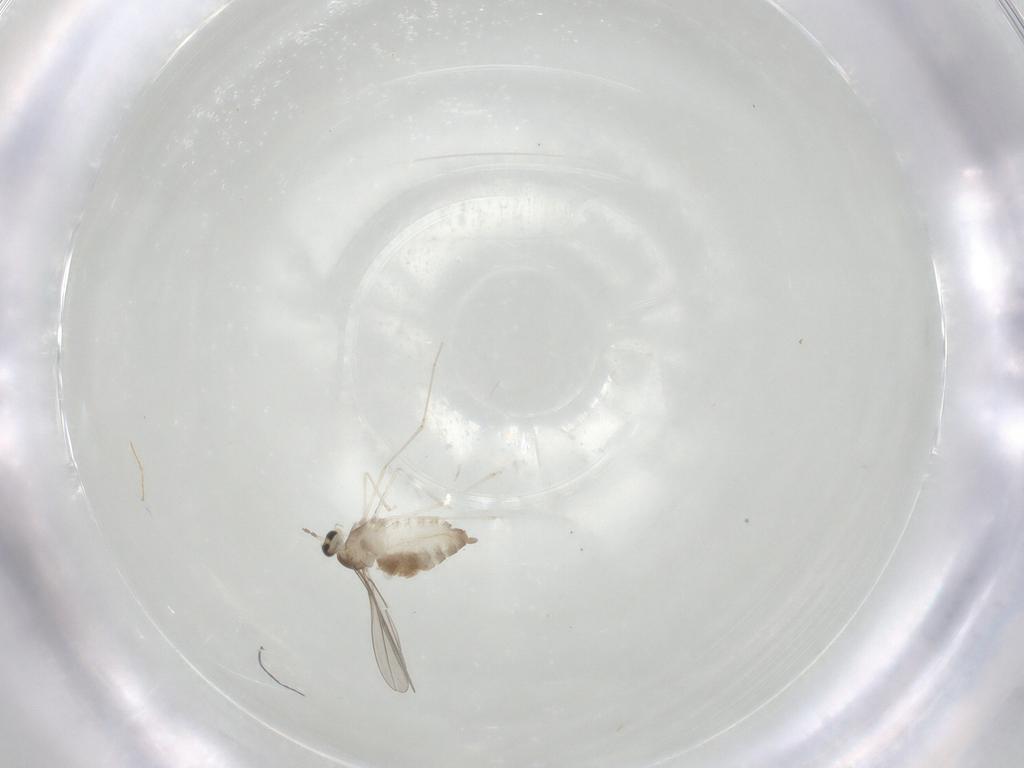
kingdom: Animalia
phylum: Arthropoda
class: Insecta
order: Diptera
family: Cecidomyiidae
